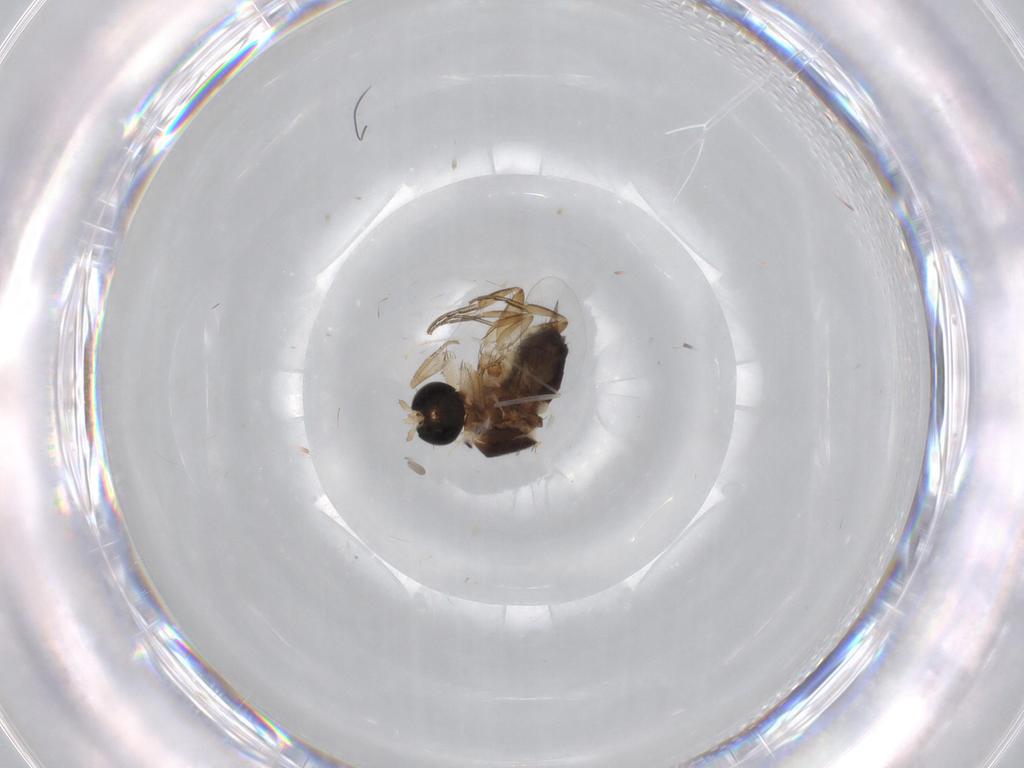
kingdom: Animalia
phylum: Arthropoda
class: Insecta
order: Diptera
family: Phoridae
